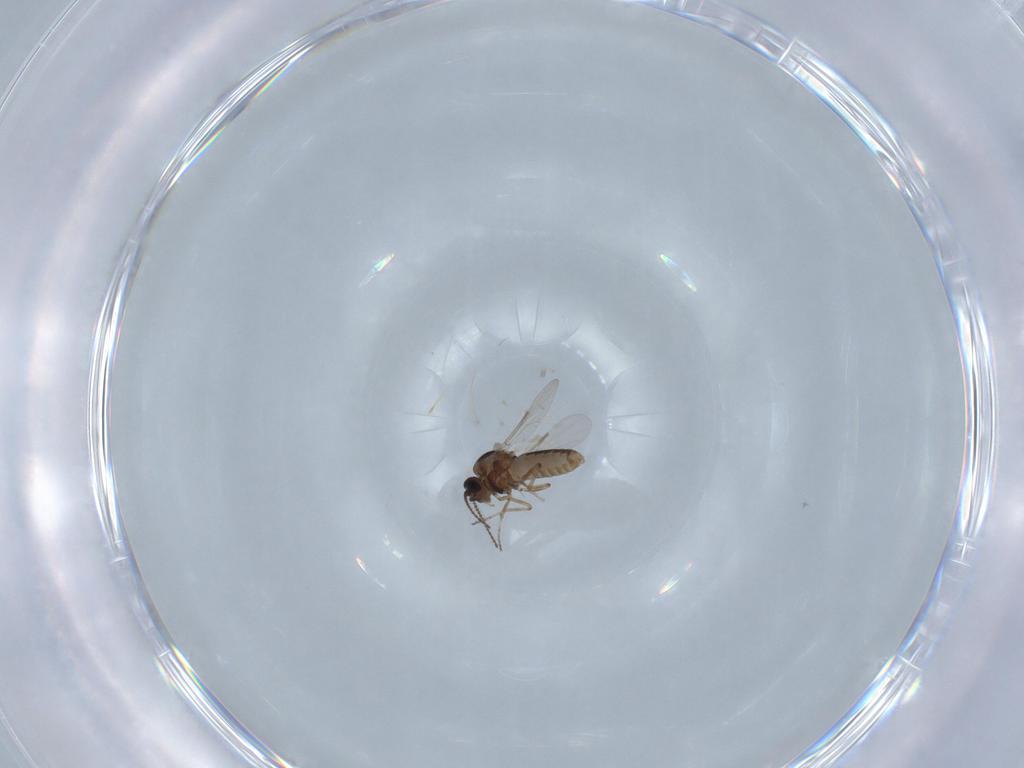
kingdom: Animalia
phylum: Arthropoda
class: Insecta
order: Diptera
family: Ceratopogonidae
